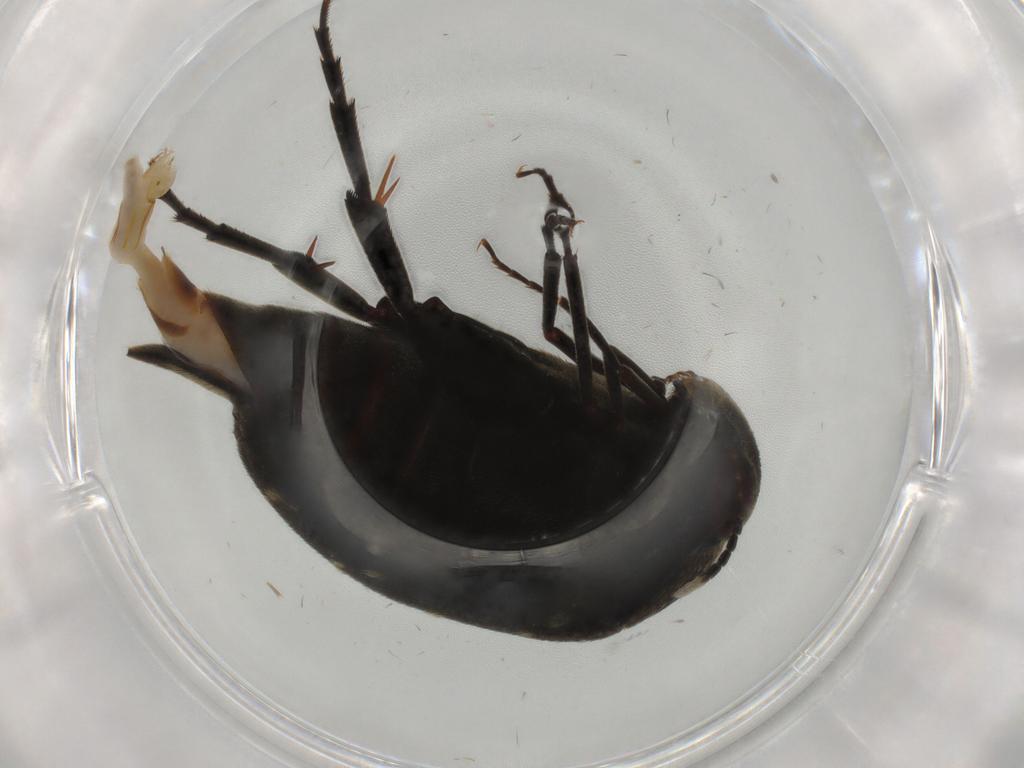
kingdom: Animalia
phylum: Arthropoda
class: Insecta
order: Coleoptera
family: Mordellidae
